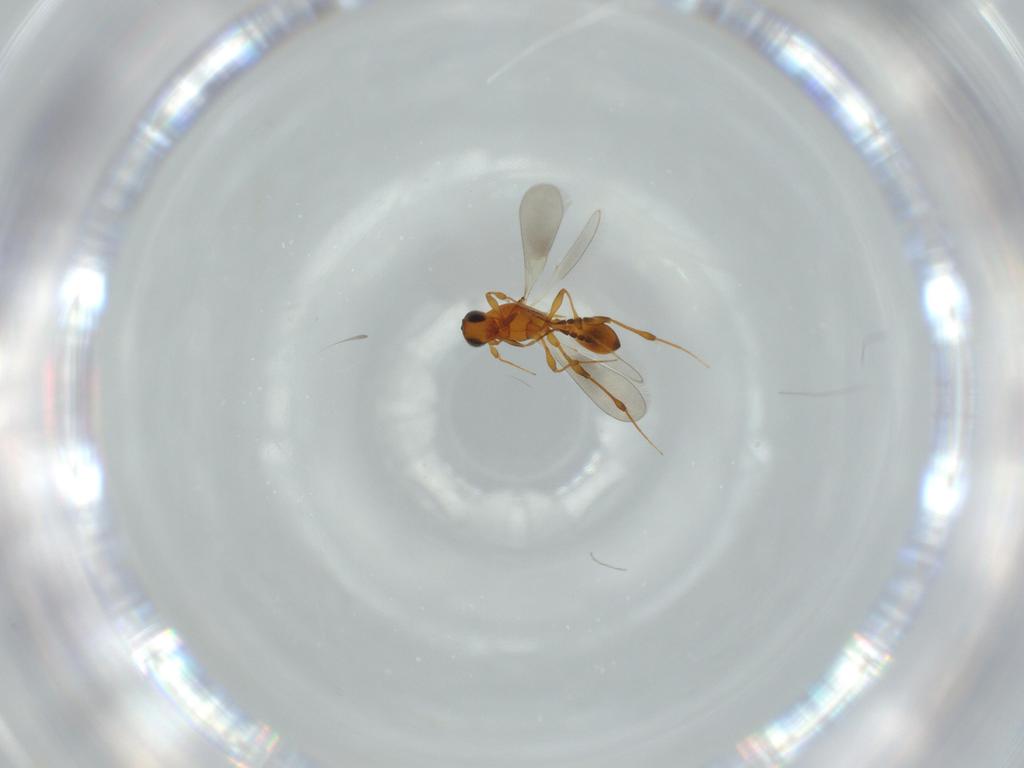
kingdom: Animalia
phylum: Arthropoda
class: Insecta
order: Hymenoptera
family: Platygastridae
